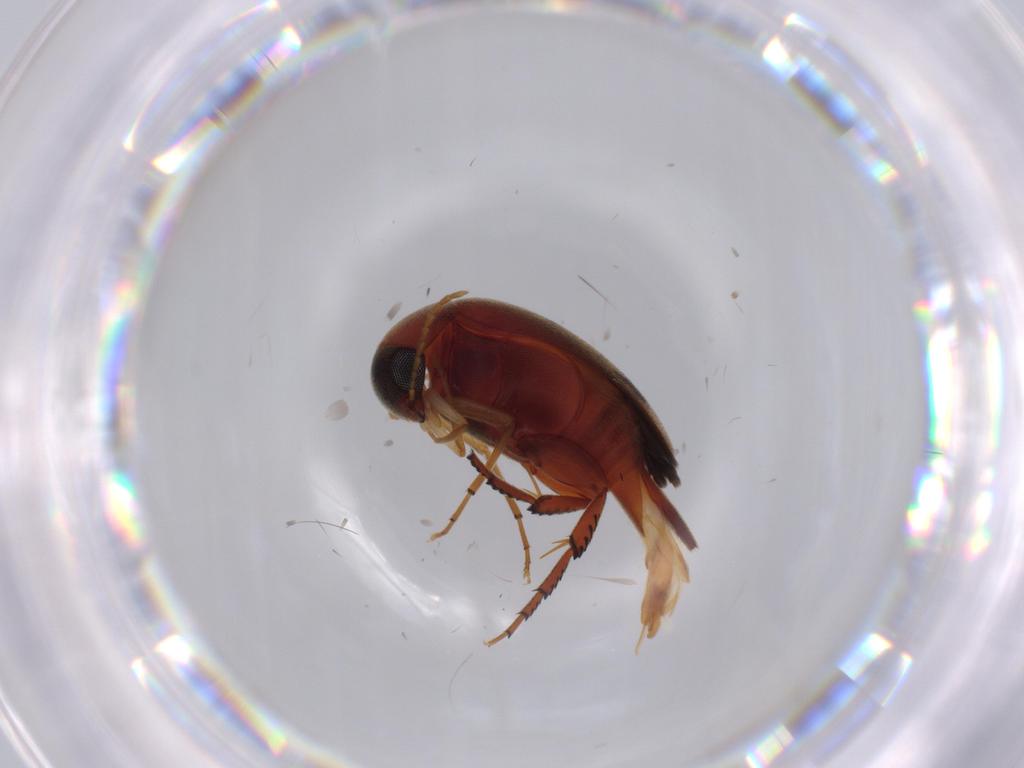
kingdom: Animalia
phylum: Arthropoda
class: Insecta
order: Coleoptera
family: Mordellidae
